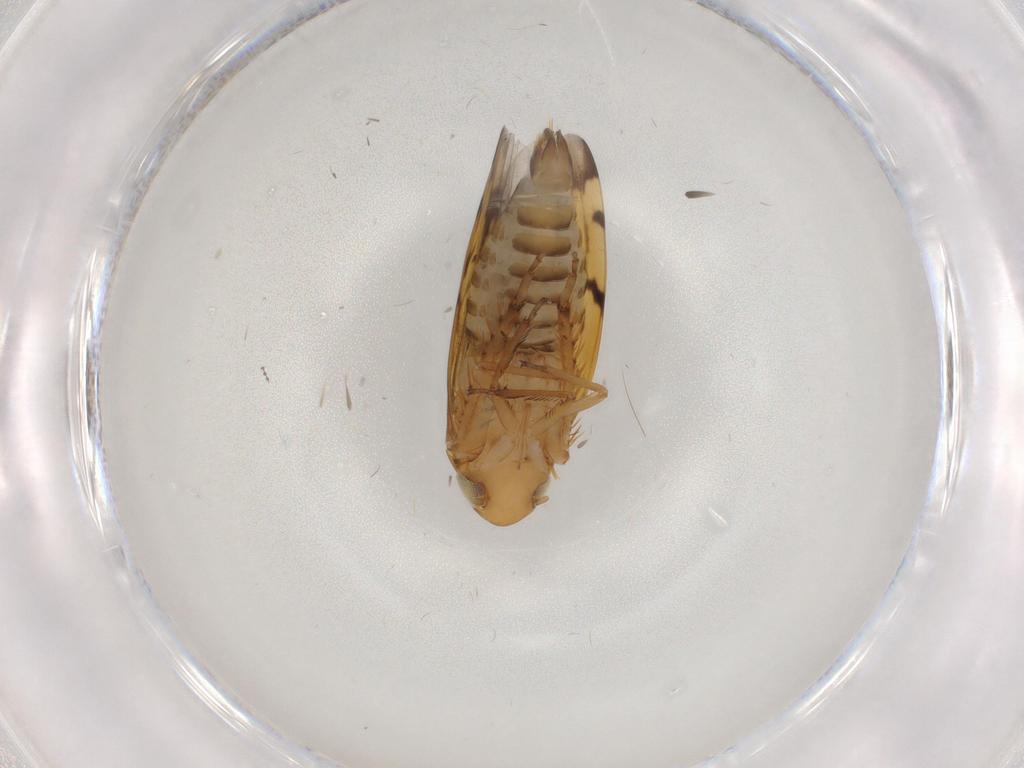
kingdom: Animalia
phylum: Arthropoda
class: Insecta
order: Hemiptera
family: Cicadellidae
